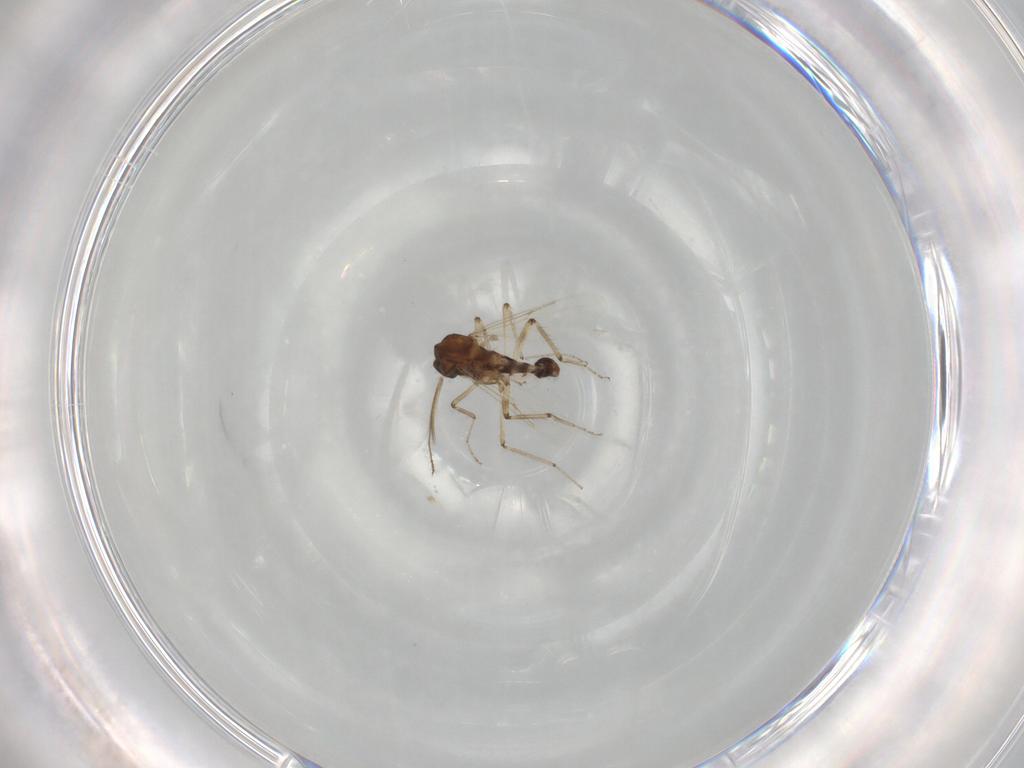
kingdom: Animalia
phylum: Arthropoda
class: Insecta
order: Diptera
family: Ceratopogonidae
